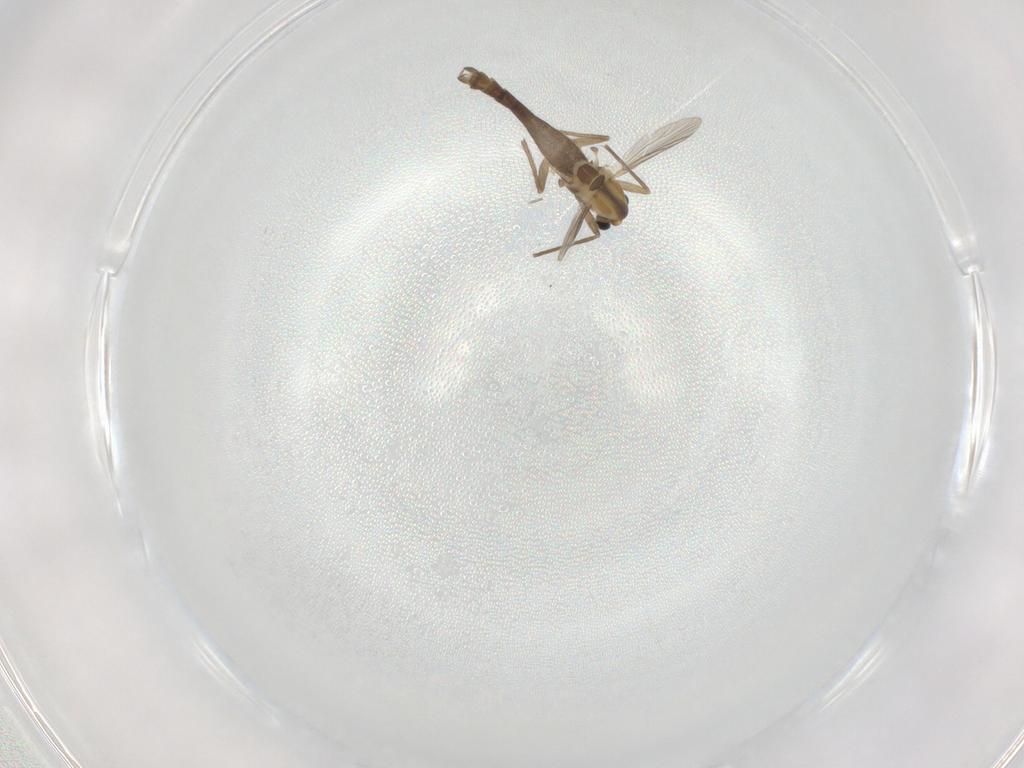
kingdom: Animalia
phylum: Arthropoda
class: Insecta
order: Diptera
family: Chironomidae
